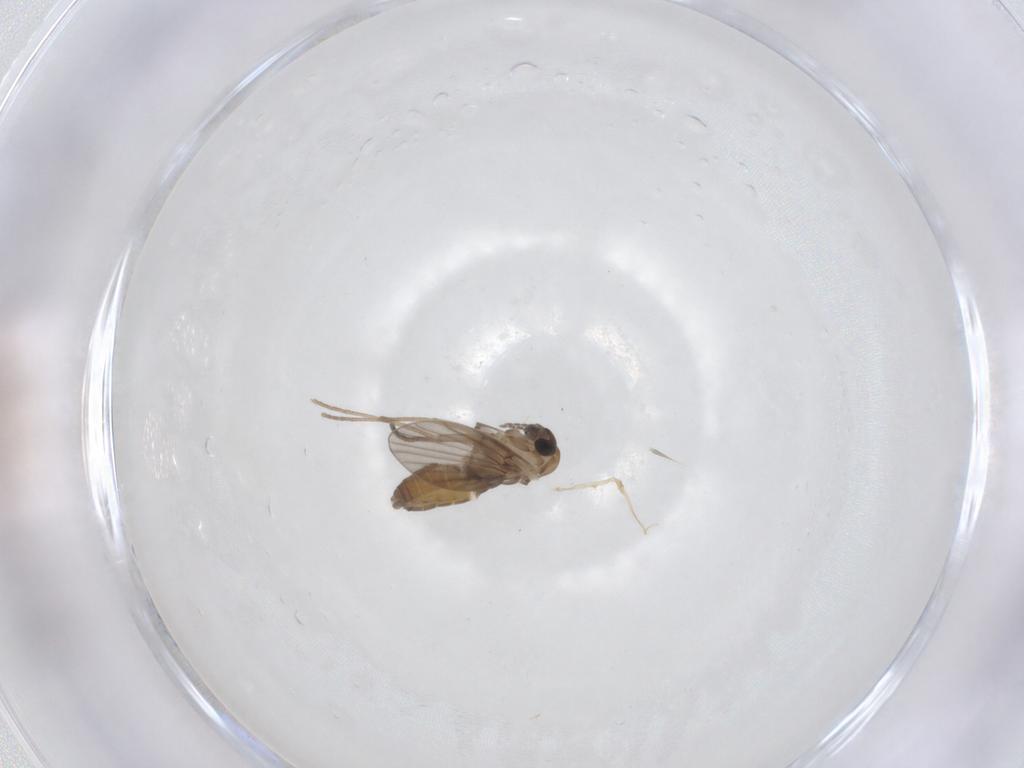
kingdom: Animalia
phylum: Arthropoda
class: Insecta
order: Diptera
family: Psychodidae
